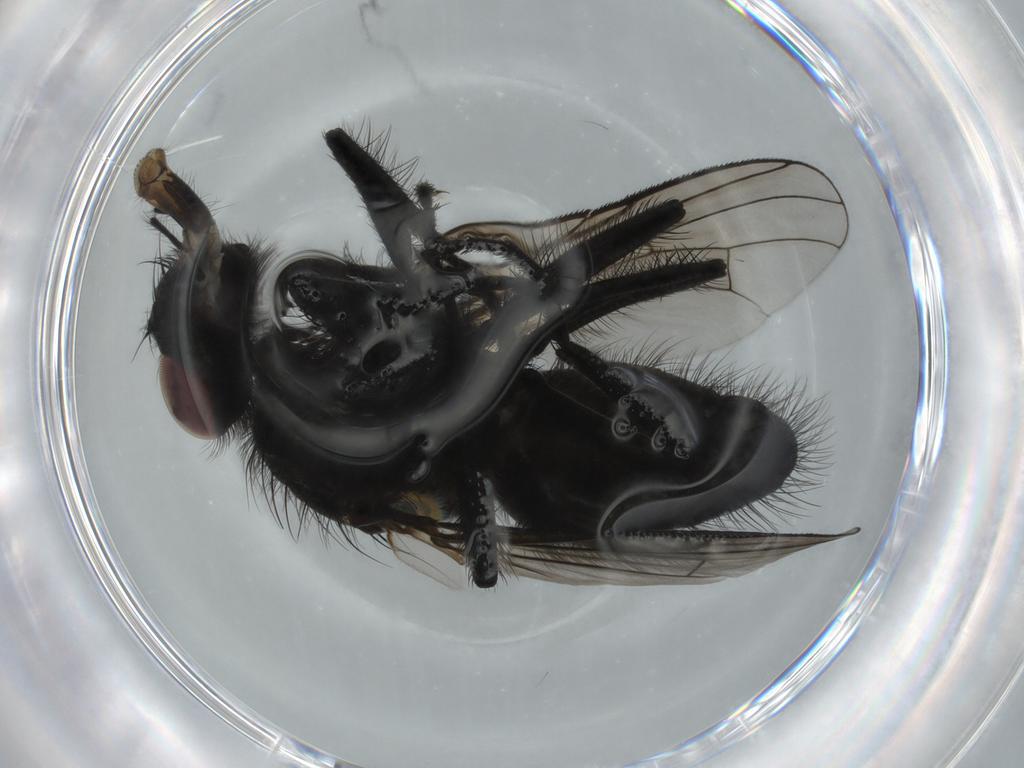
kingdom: Animalia
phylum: Arthropoda
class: Insecta
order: Diptera
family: Muscidae
